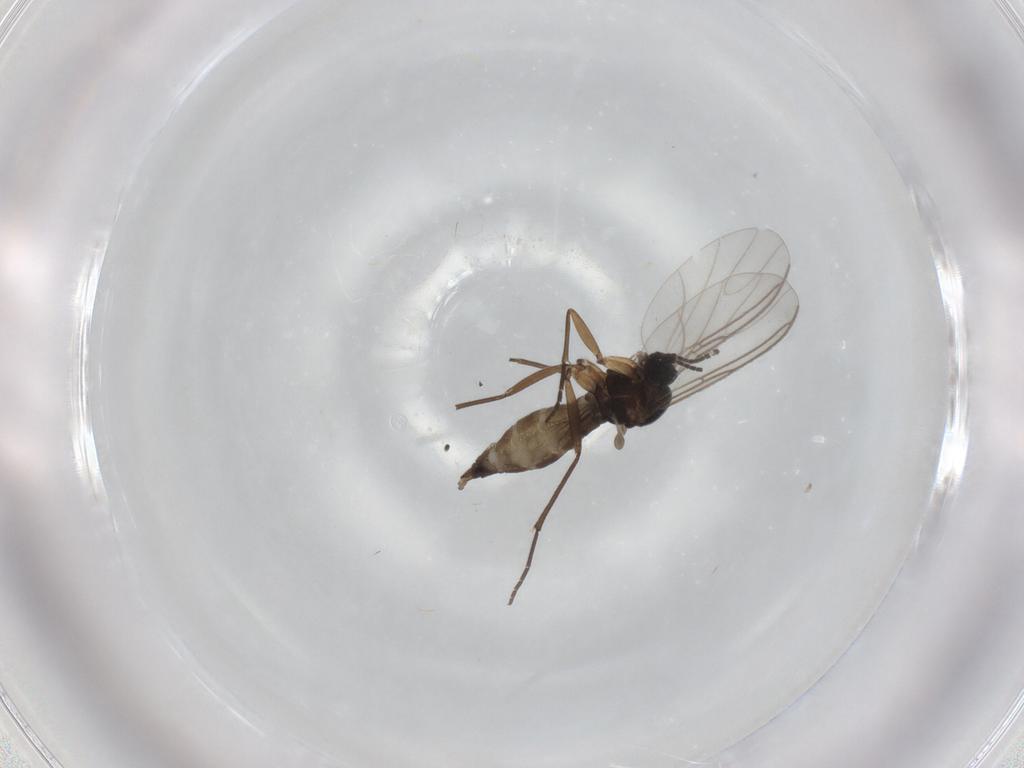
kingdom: Animalia
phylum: Arthropoda
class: Insecta
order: Diptera
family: Sciaridae
